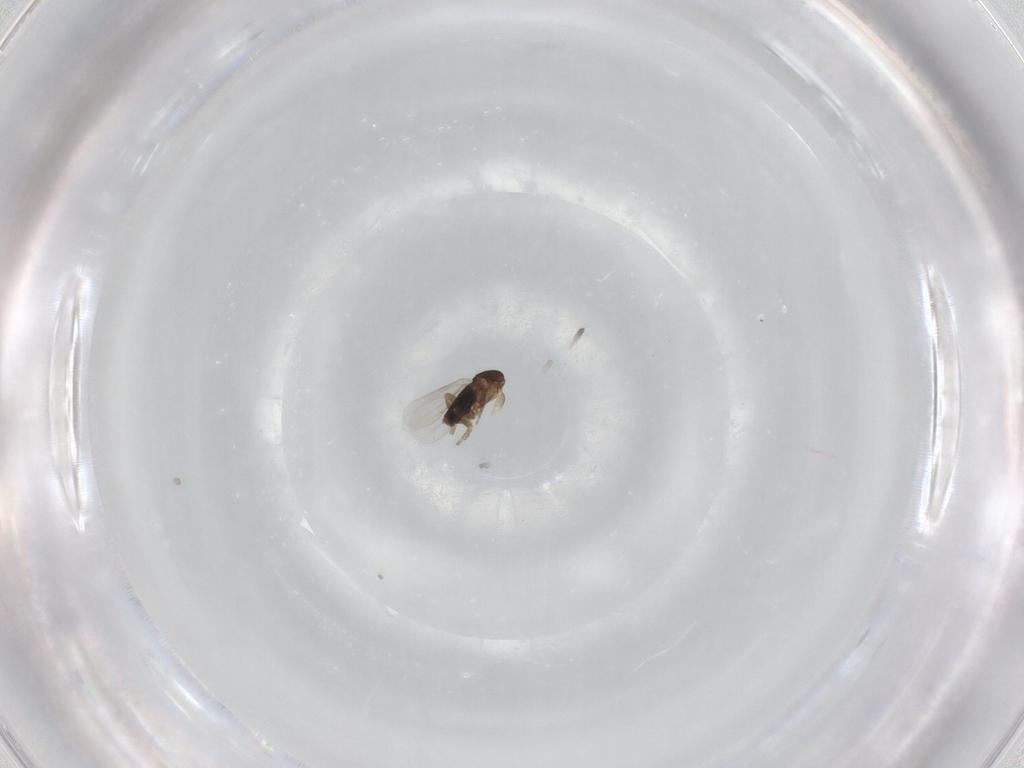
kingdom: Animalia
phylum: Arthropoda
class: Insecta
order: Diptera
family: Phoridae
